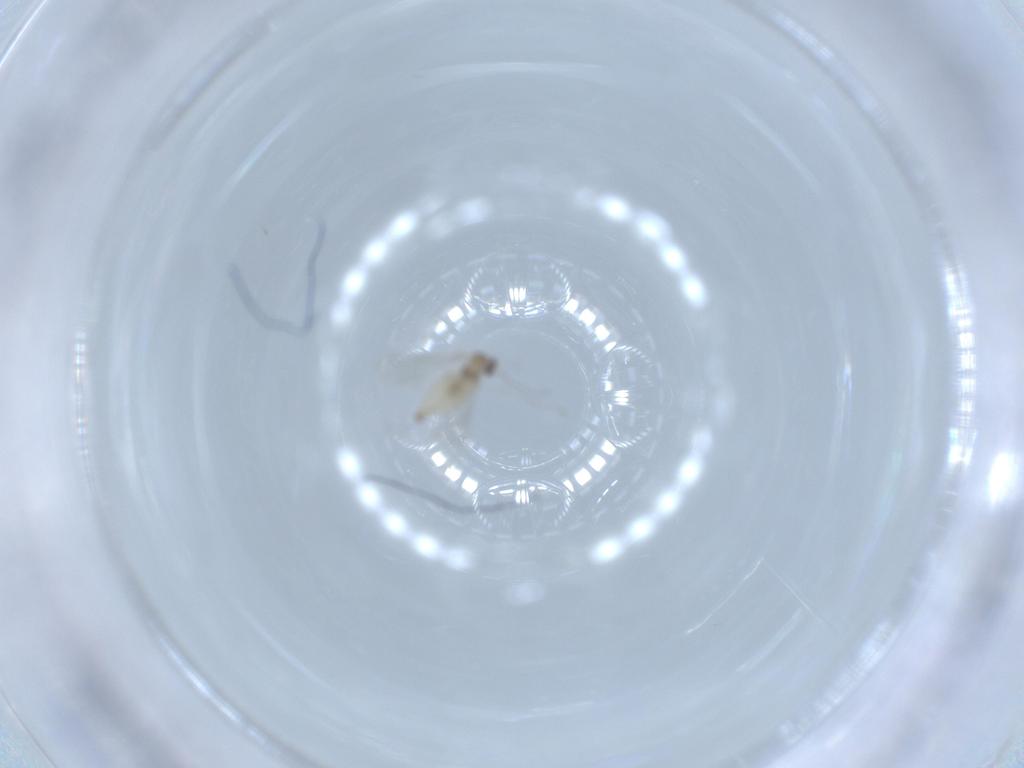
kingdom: Animalia
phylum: Arthropoda
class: Insecta
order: Diptera
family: Cecidomyiidae
